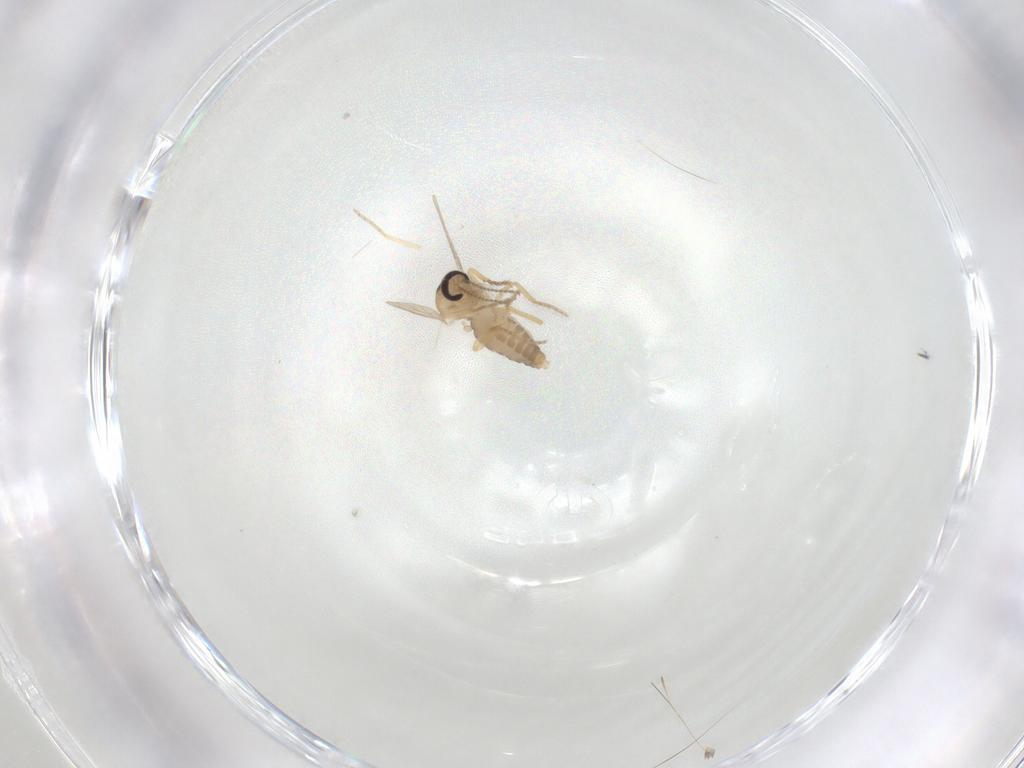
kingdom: Animalia
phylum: Arthropoda
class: Insecta
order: Diptera
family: Ceratopogonidae
